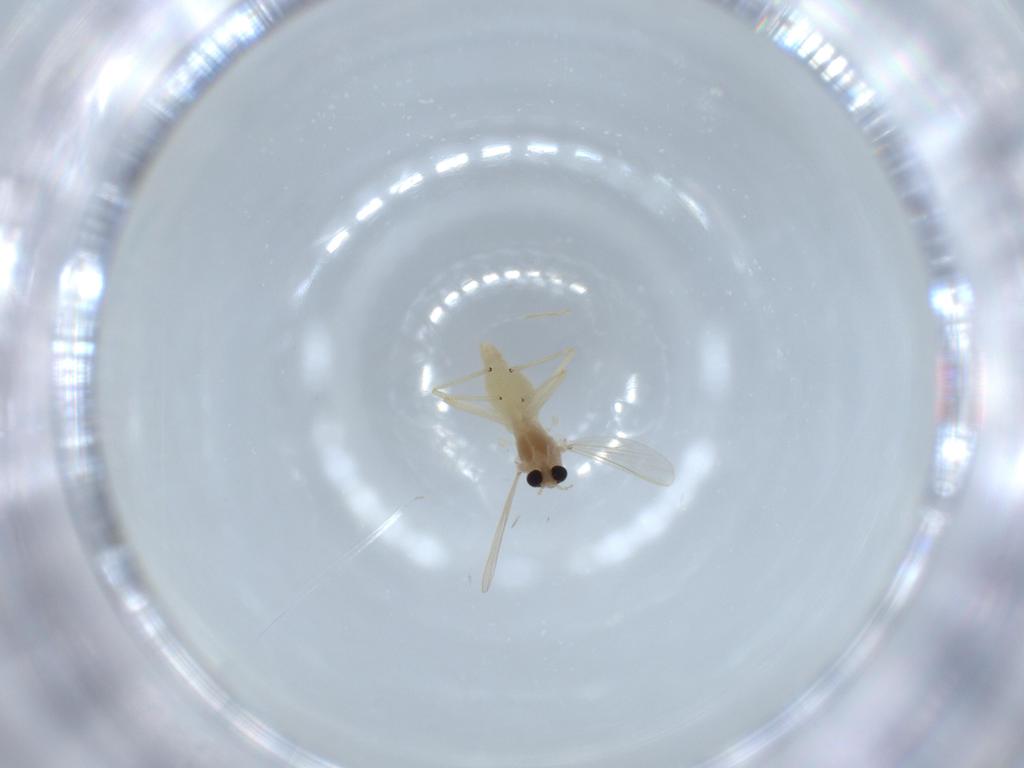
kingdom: Animalia
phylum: Arthropoda
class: Insecta
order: Diptera
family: Chironomidae
